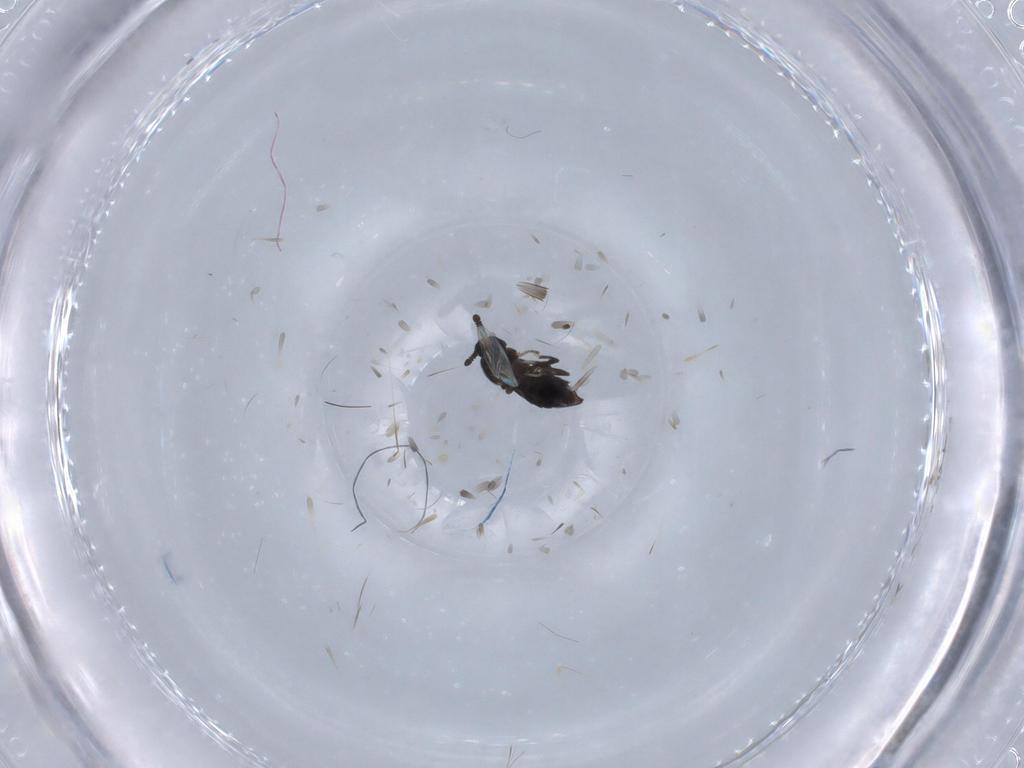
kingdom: Animalia
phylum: Arthropoda
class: Insecta
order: Diptera
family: Scatopsidae
